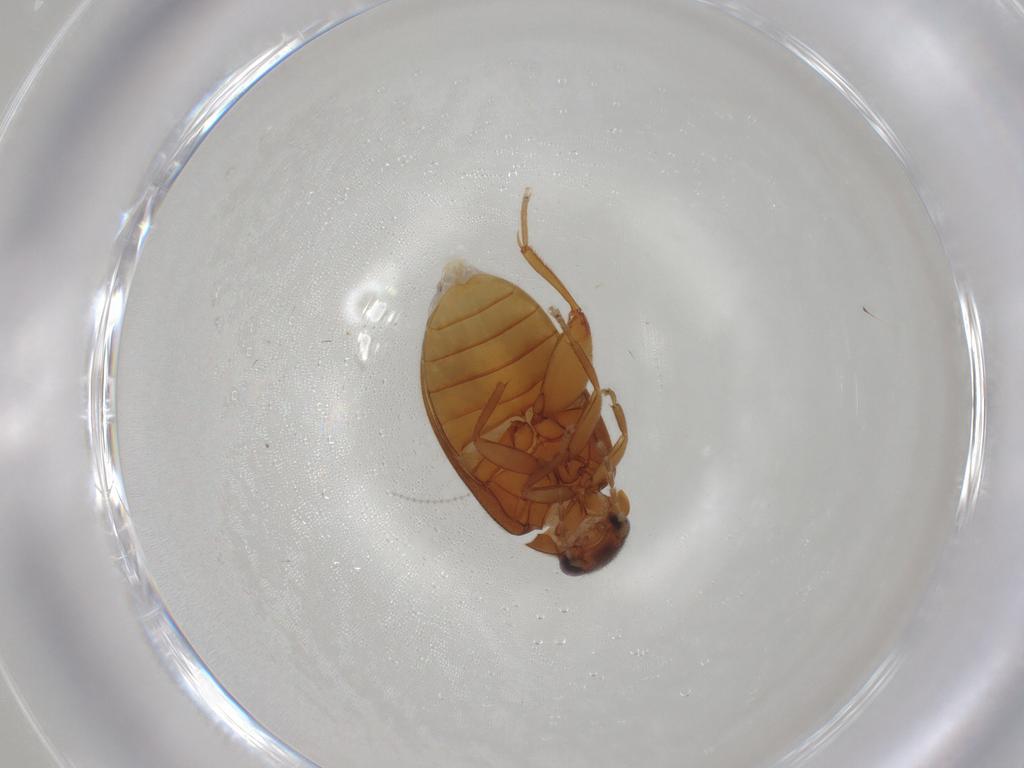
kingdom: Animalia
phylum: Arthropoda
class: Insecta
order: Coleoptera
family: Scirtidae
